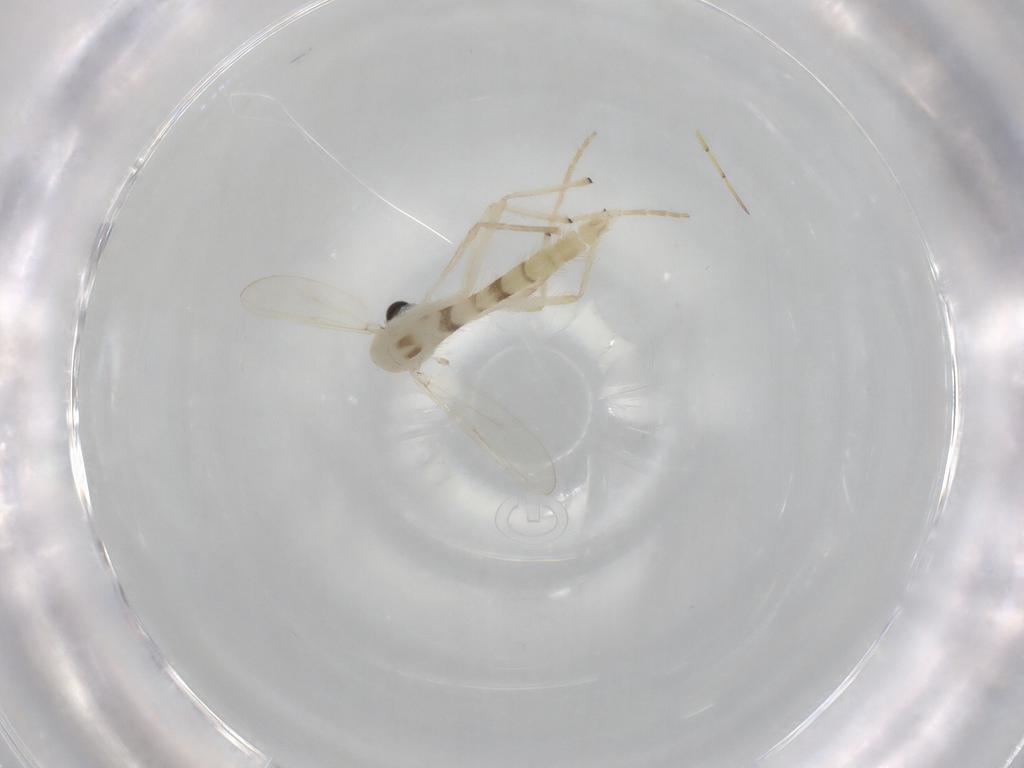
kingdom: Animalia
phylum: Arthropoda
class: Insecta
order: Diptera
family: Chironomidae
